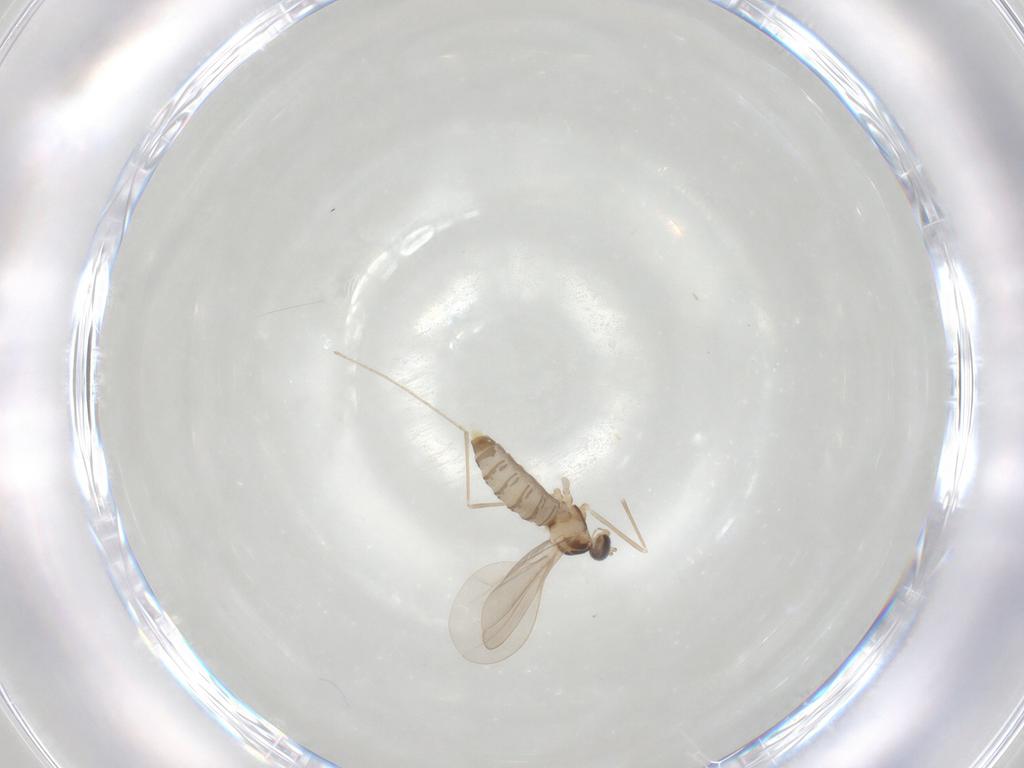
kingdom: Animalia
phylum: Arthropoda
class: Insecta
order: Diptera
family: Cecidomyiidae
